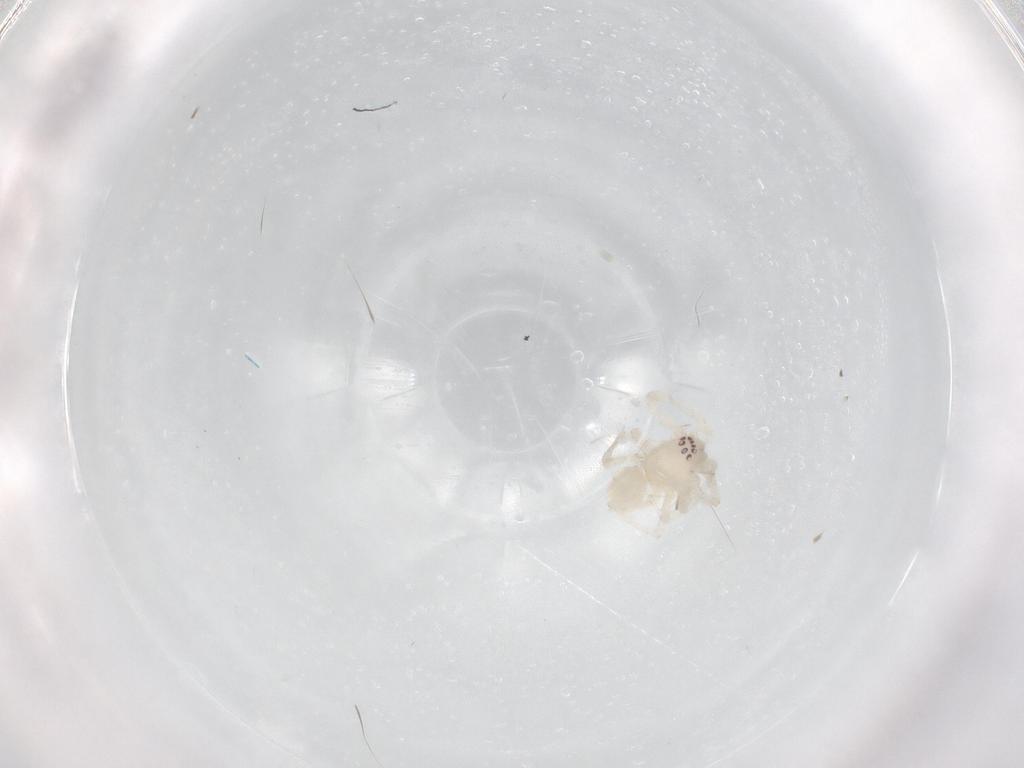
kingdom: Animalia
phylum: Arthropoda
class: Arachnida
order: Araneae
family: Anyphaenidae
